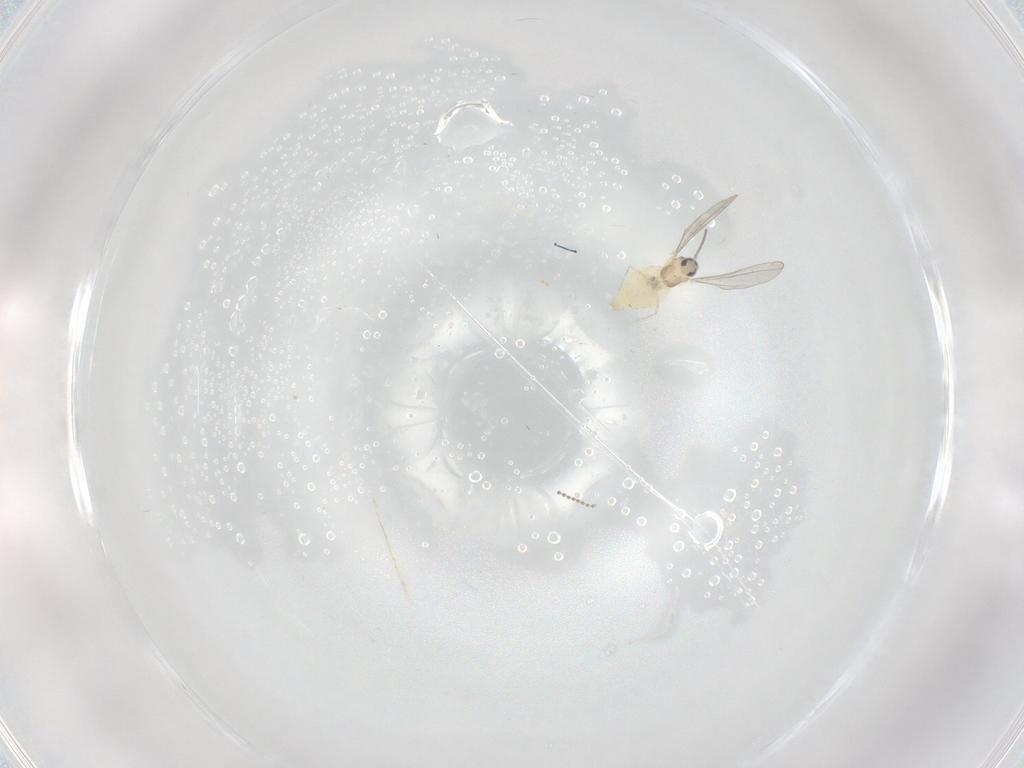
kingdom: Animalia
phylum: Arthropoda
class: Insecta
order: Diptera
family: Cecidomyiidae
